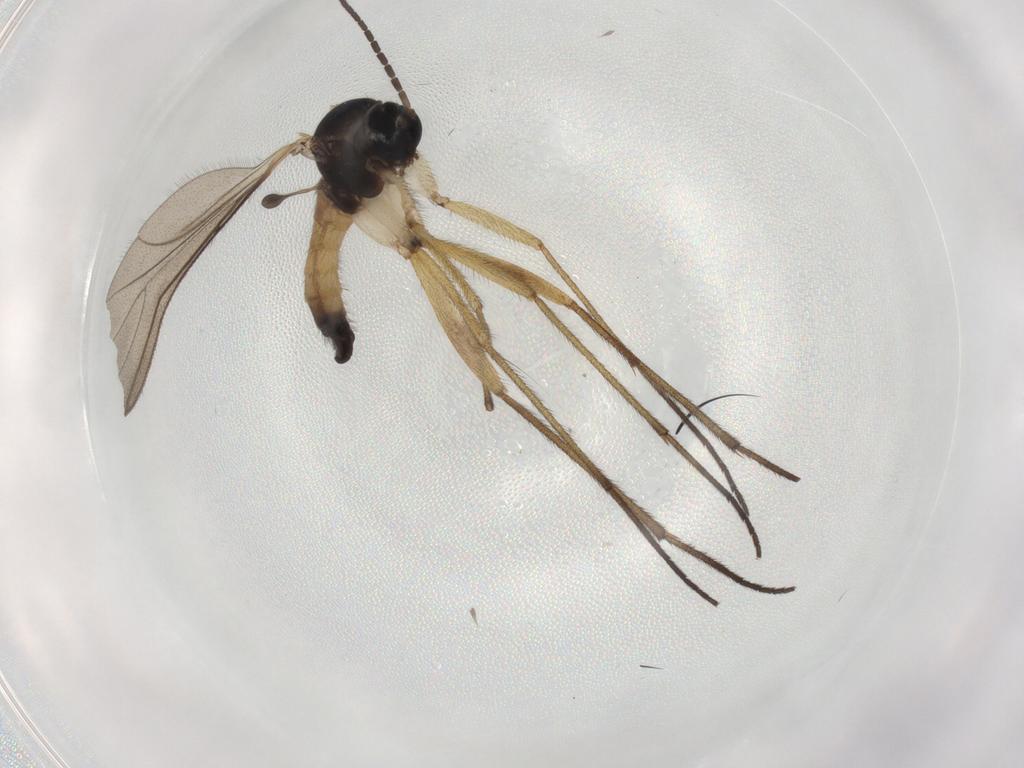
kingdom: Animalia
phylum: Arthropoda
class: Insecta
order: Diptera
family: Sciaridae
